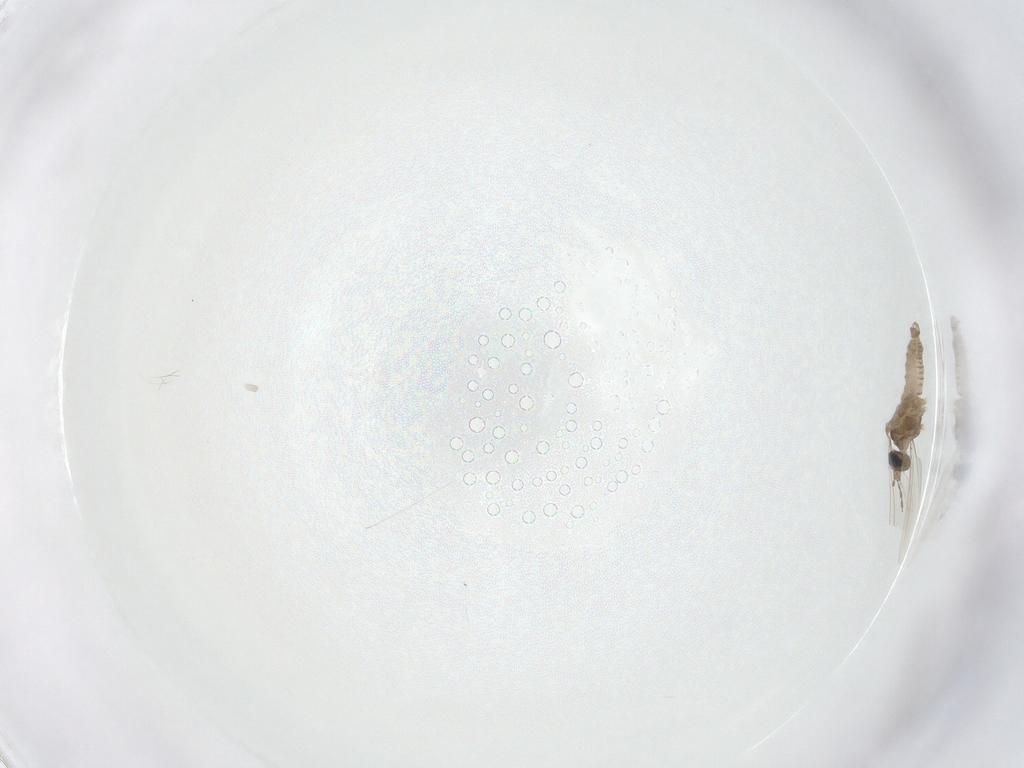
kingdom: Animalia
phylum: Arthropoda
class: Insecta
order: Diptera
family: Cecidomyiidae
